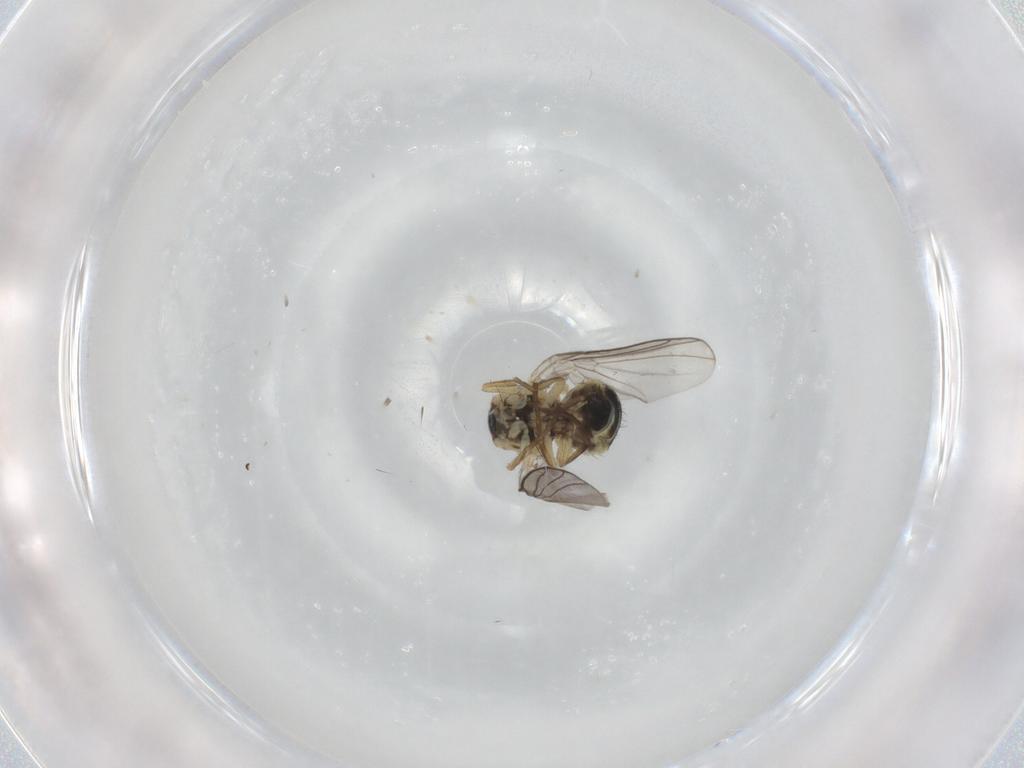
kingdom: Animalia
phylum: Arthropoda
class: Insecta
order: Diptera
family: Agromyzidae
